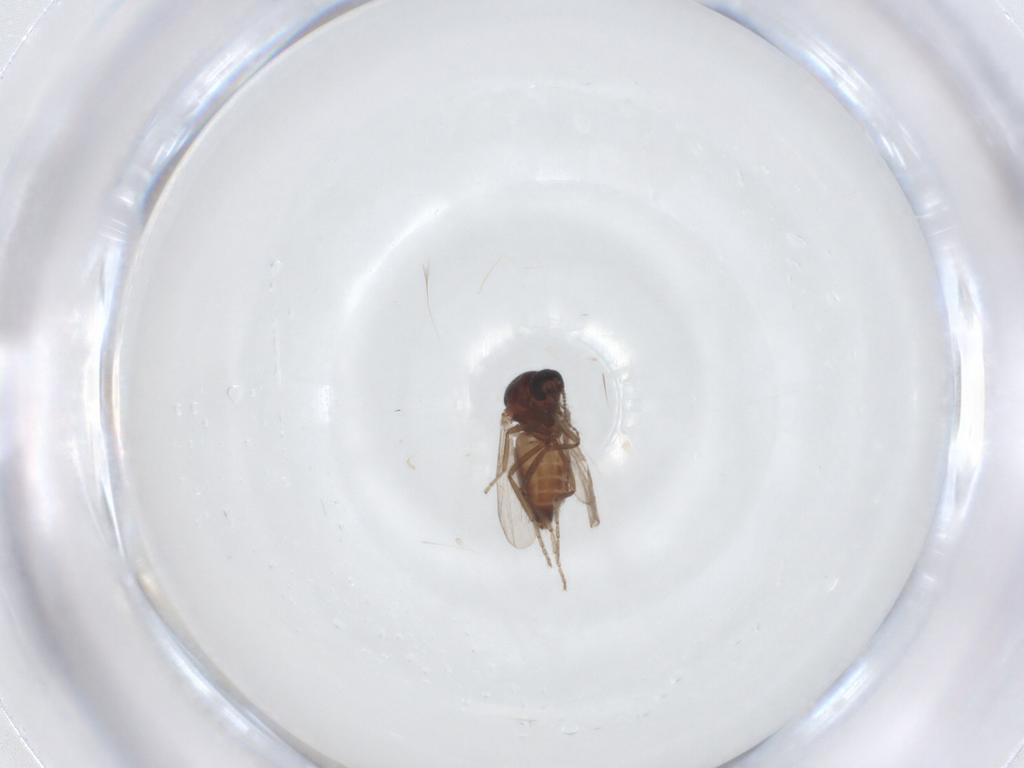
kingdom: Animalia
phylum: Arthropoda
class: Insecta
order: Diptera
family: Ceratopogonidae
